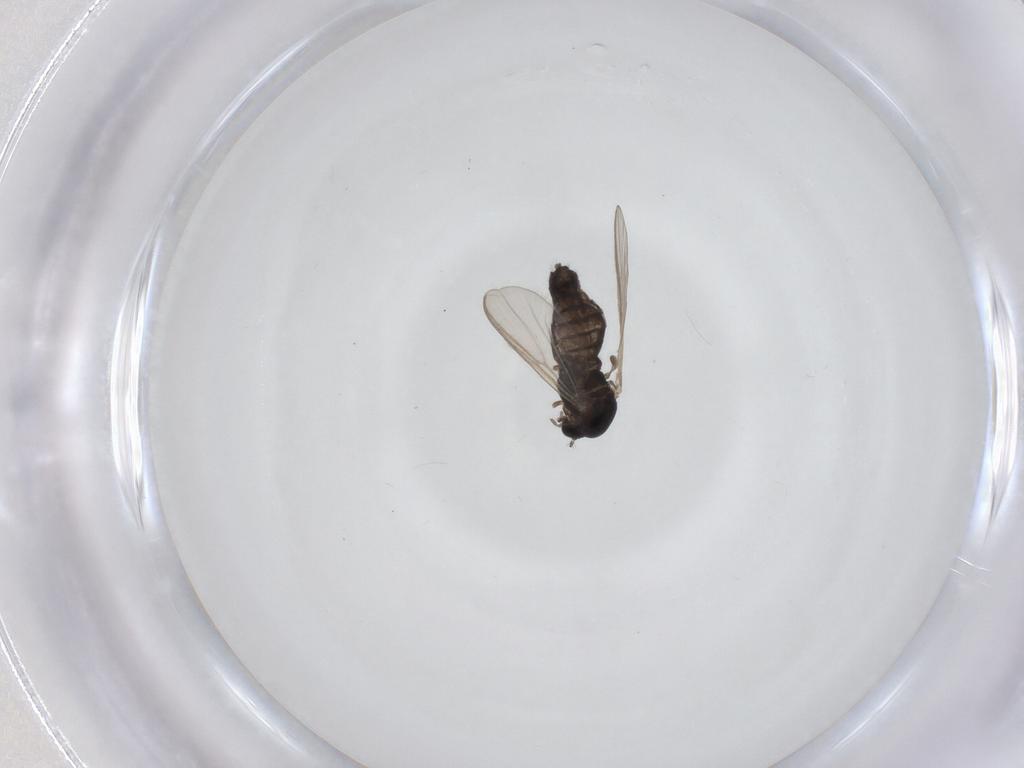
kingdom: Animalia
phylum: Arthropoda
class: Insecta
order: Diptera
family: Chironomidae
